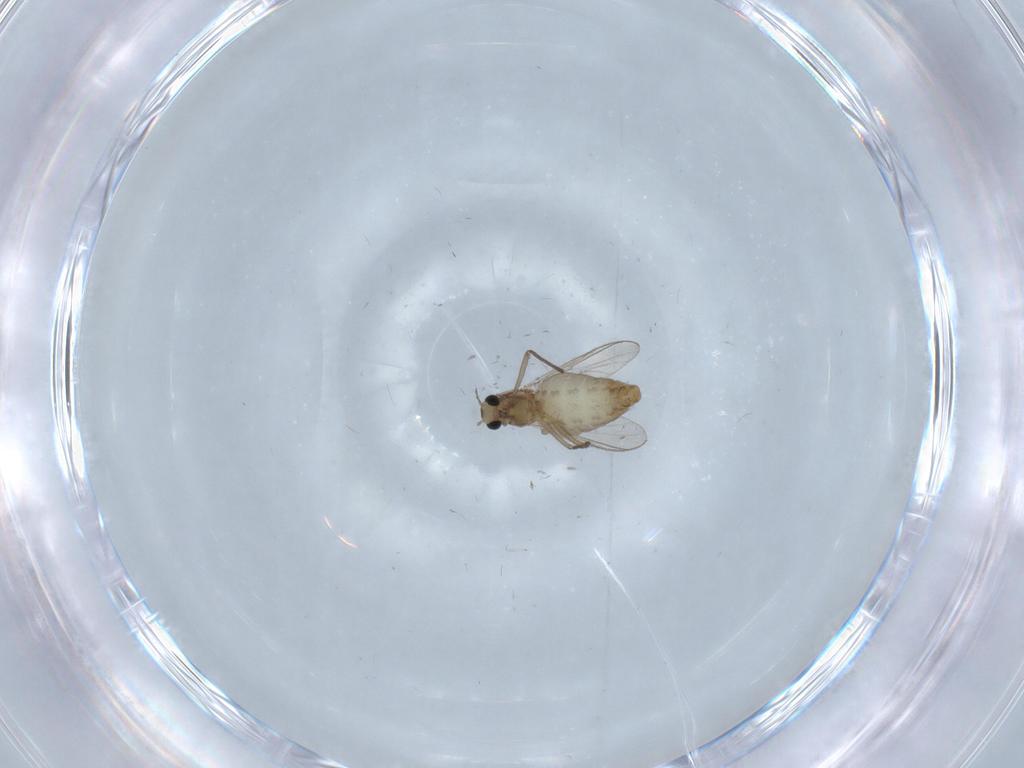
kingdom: Animalia
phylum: Arthropoda
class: Insecta
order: Diptera
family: Chironomidae
